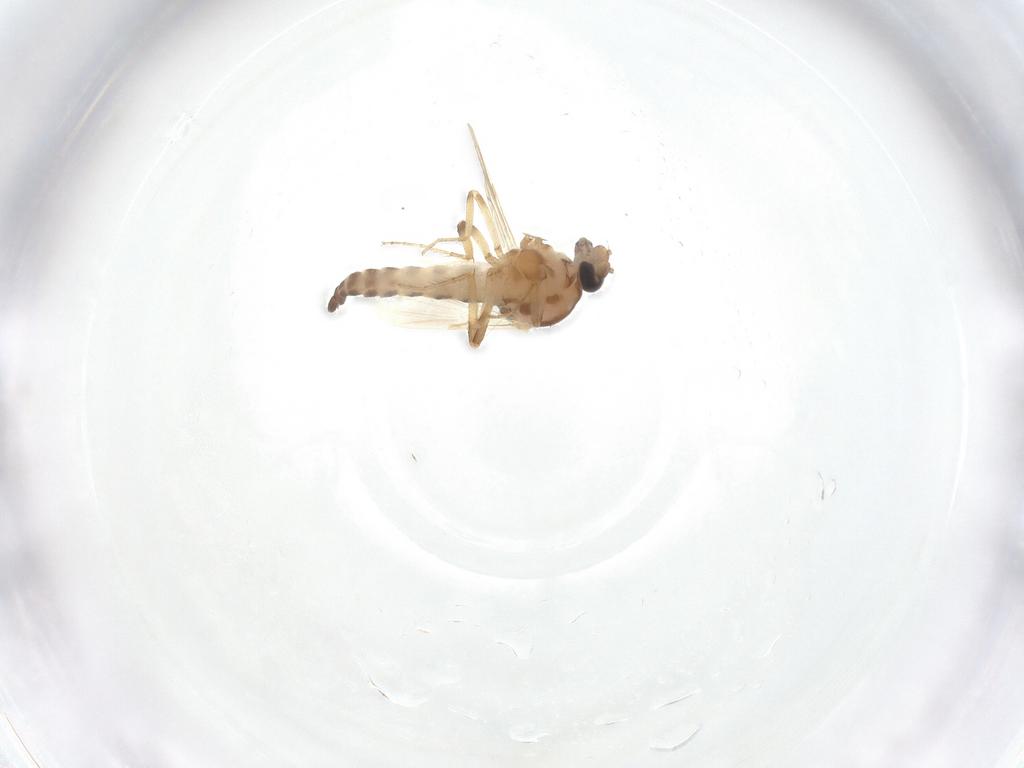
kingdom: Animalia
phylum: Arthropoda
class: Insecta
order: Diptera
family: Ceratopogonidae
